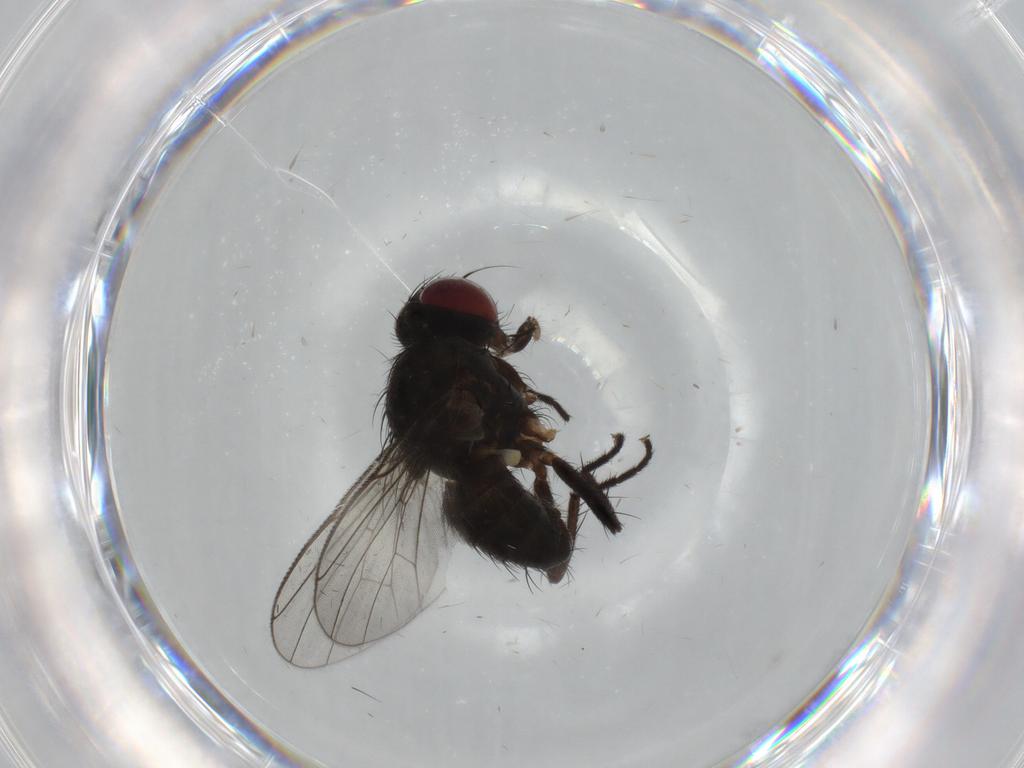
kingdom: Animalia
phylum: Arthropoda
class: Insecta
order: Diptera
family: Muscidae
